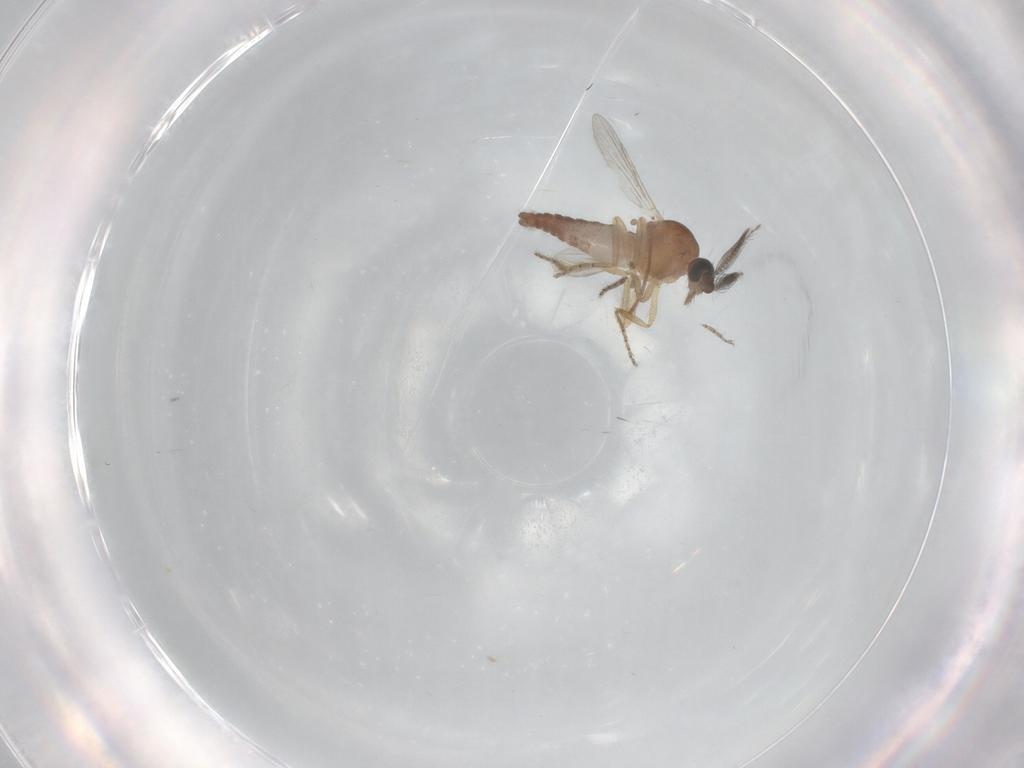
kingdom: Animalia
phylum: Arthropoda
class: Insecta
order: Diptera
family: Ceratopogonidae
